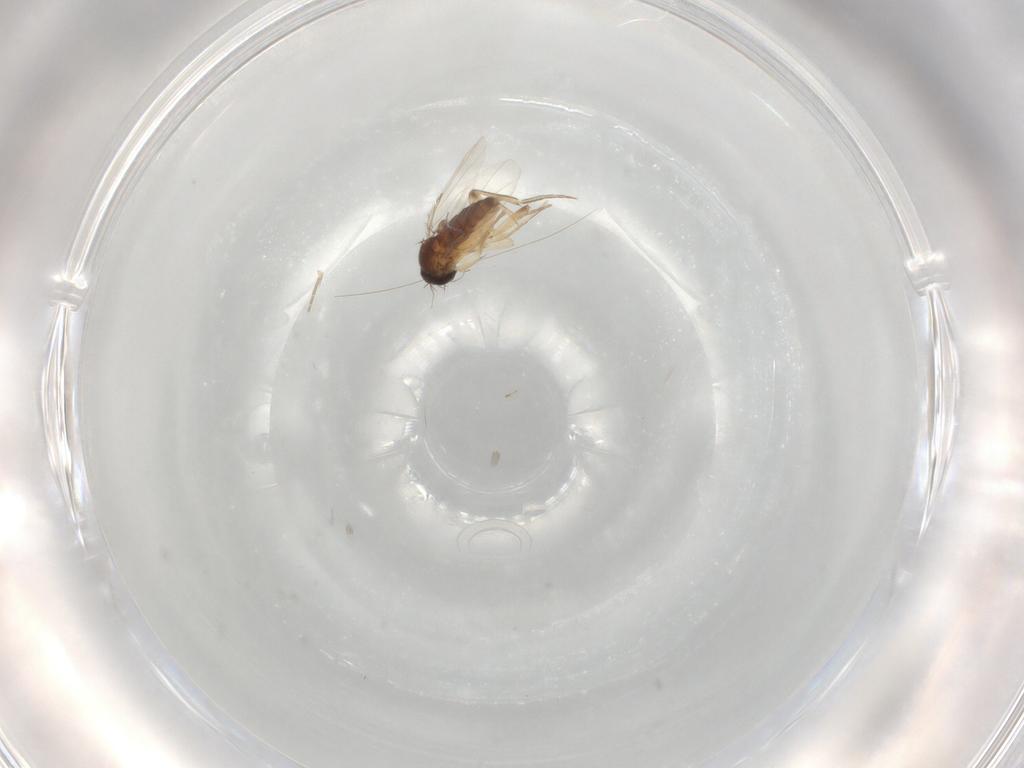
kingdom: Animalia
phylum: Arthropoda
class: Insecta
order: Diptera
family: Phoridae
